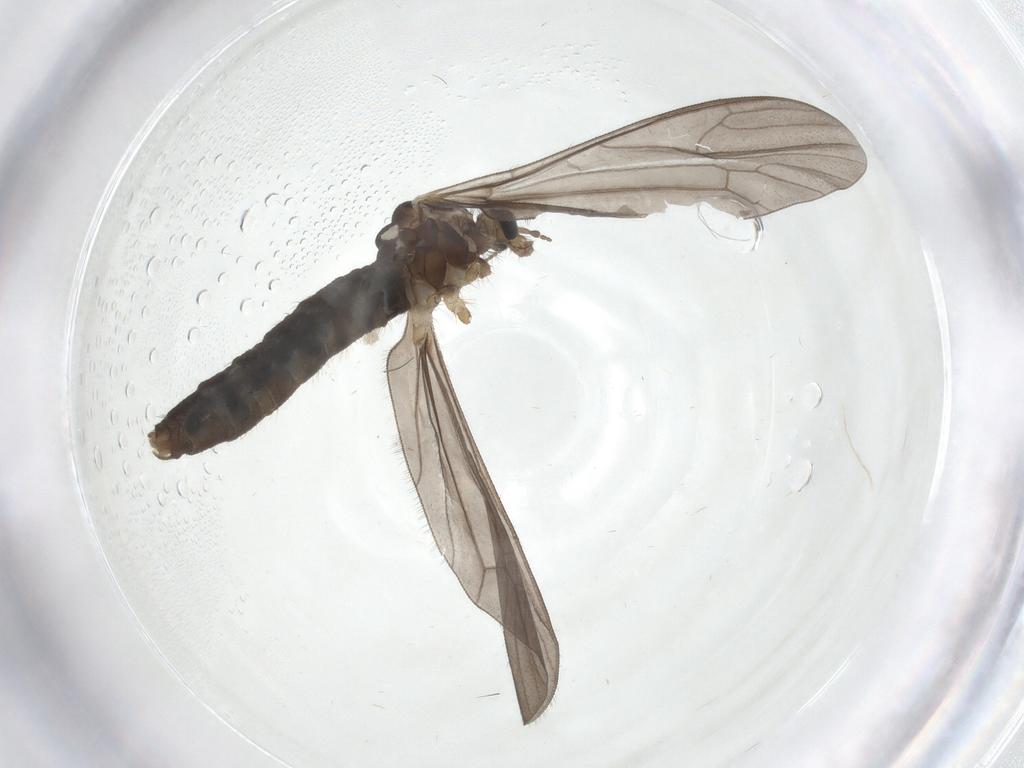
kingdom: Animalia
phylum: Arthropoda
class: Insecta
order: Diptera
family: Limoniidae
